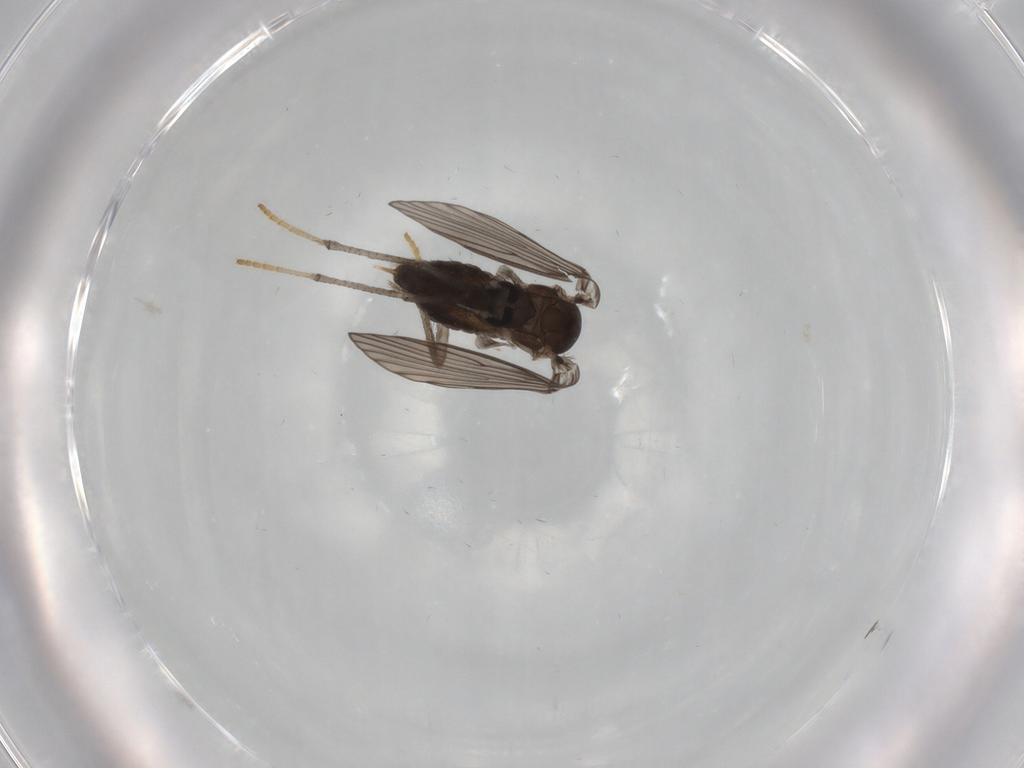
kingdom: Animalia
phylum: Arthropoda
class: Insecta
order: Diptera
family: Psychodidae
